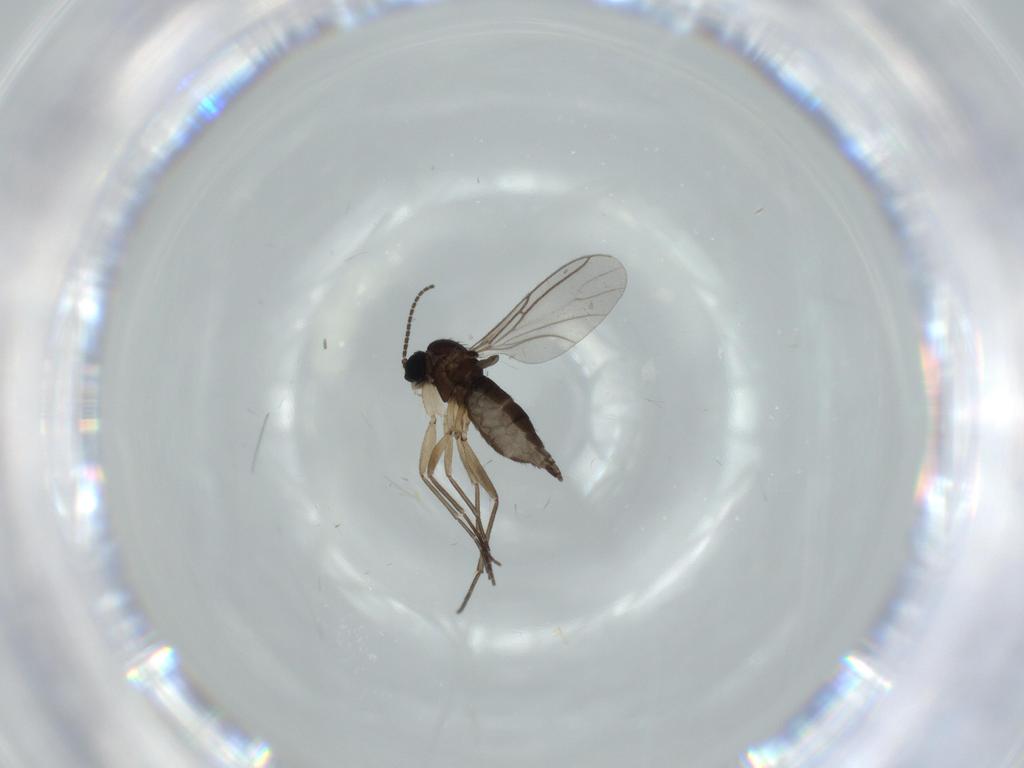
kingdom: Animalia
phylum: Arthropoda
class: Insecta
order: Diptera
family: Sciaridae
